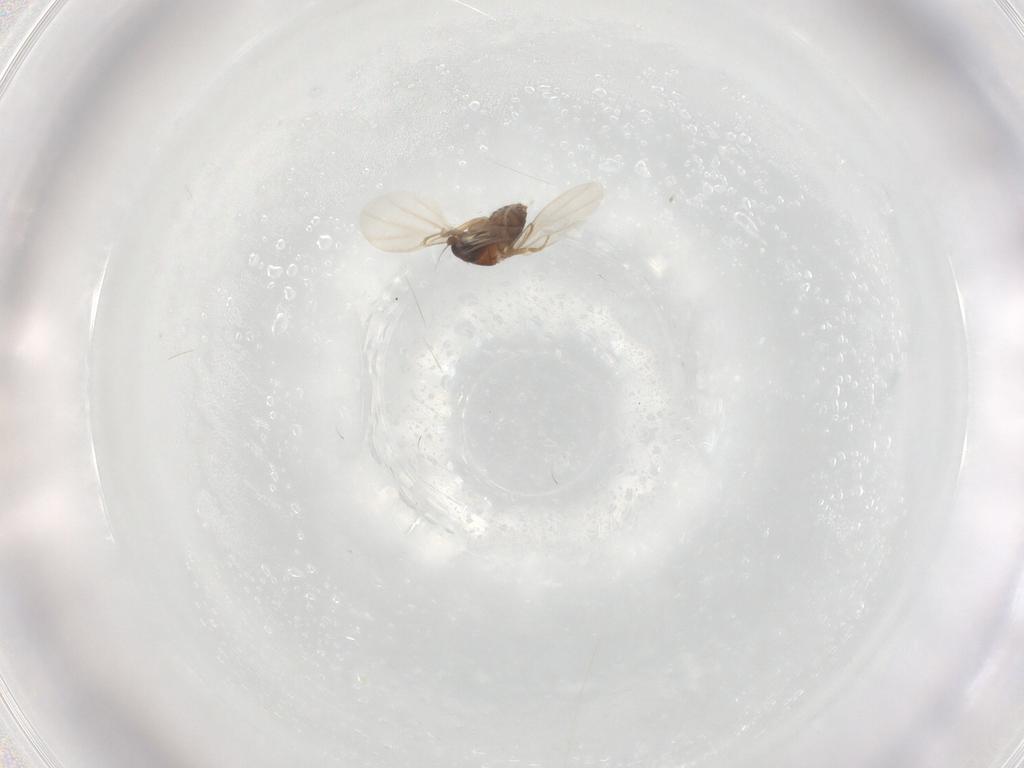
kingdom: Animalia
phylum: Arthropoda
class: Insecta
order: Diptera
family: Phoridae
